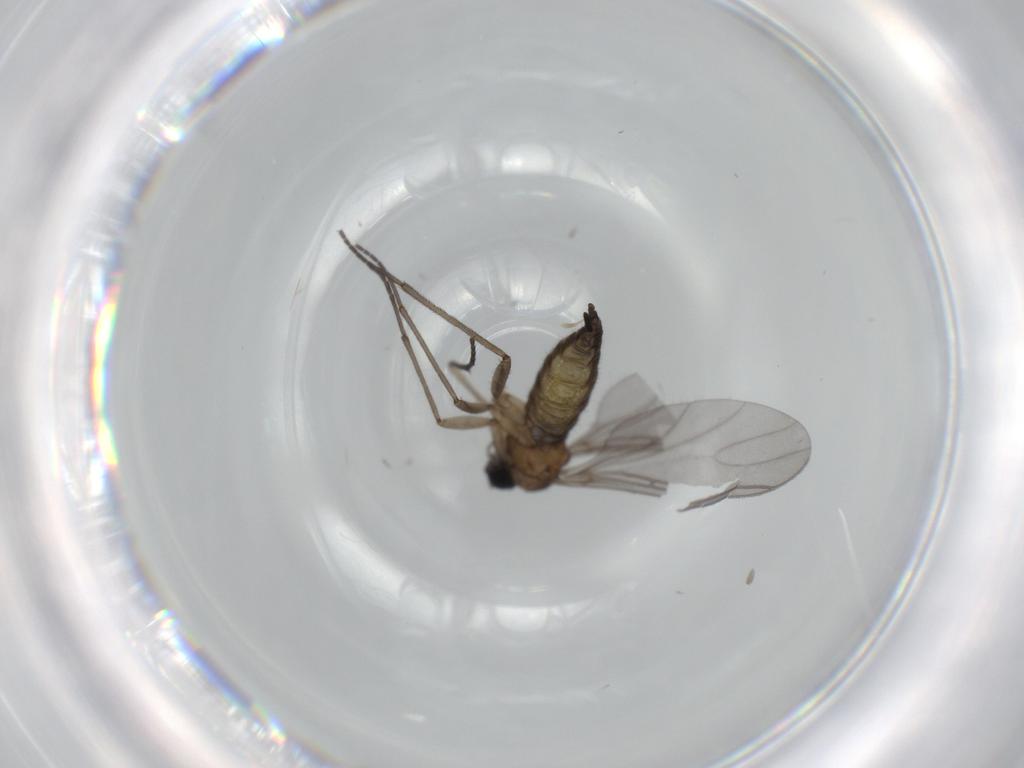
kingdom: Animalia
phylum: Arthropoda
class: Insecta
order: Diptera
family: Sciaridae
